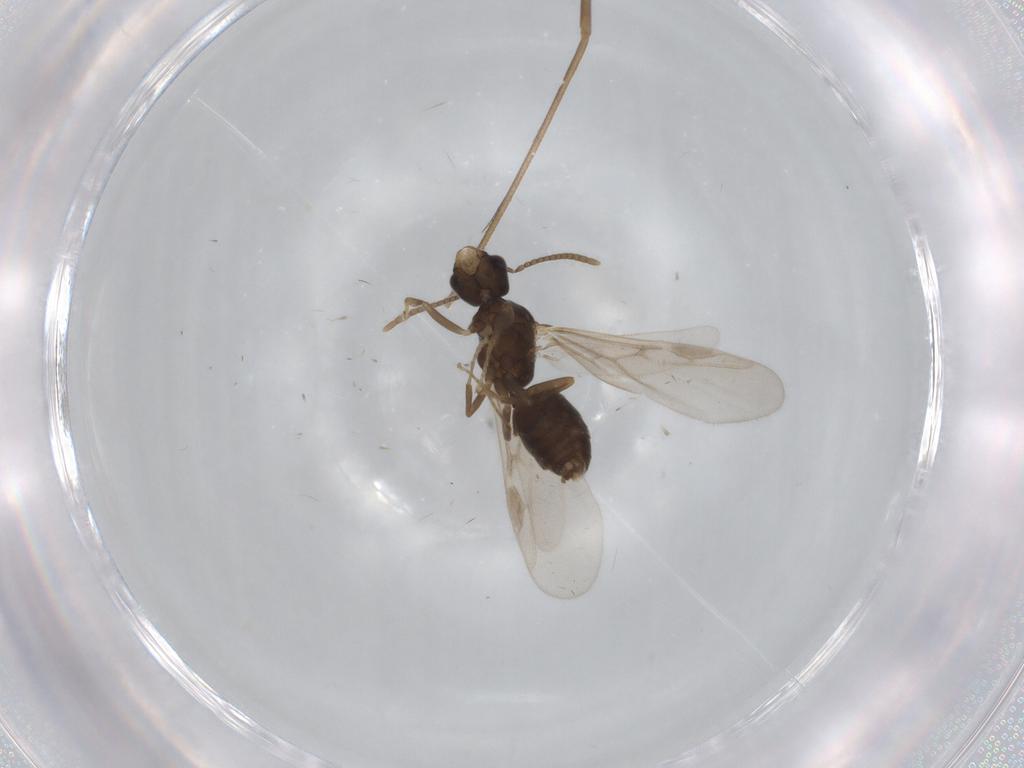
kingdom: Animalia
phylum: Arthropoda
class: Insecta
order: Hymenoptera
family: Formicidae
